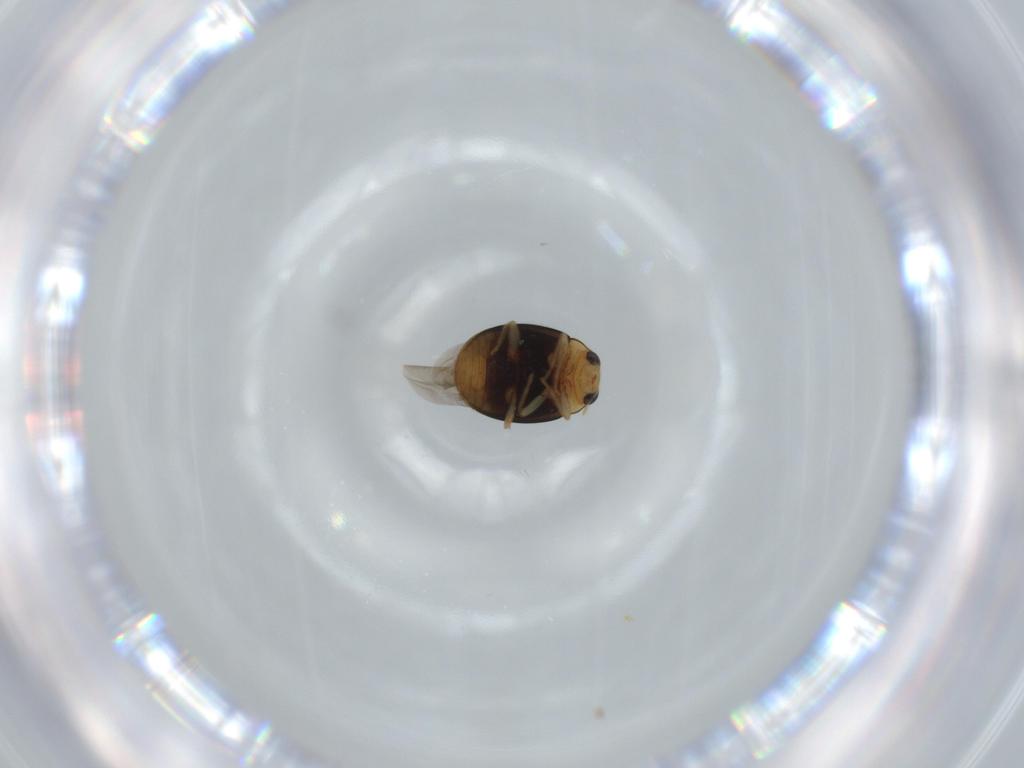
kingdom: Animalia
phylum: Arthropoda
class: Insecta
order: Coleoptera
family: Coccinellidae
